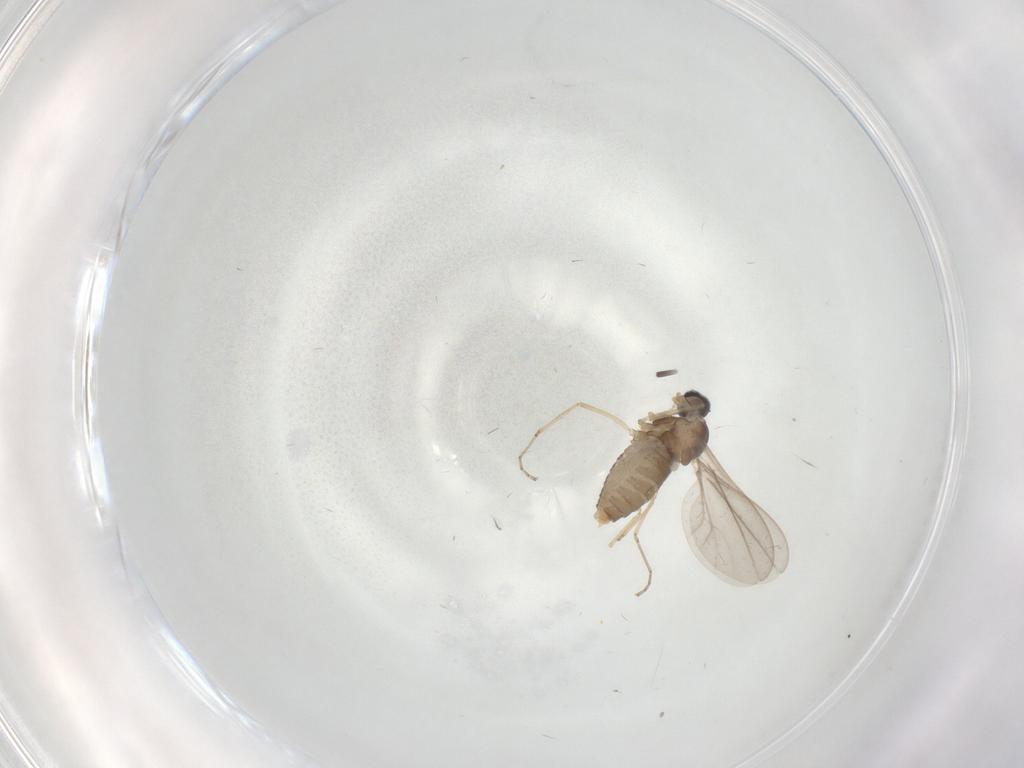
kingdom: Animalia
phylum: Arthropoda
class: Insecta
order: Diptera
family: Cecidomyiidae
